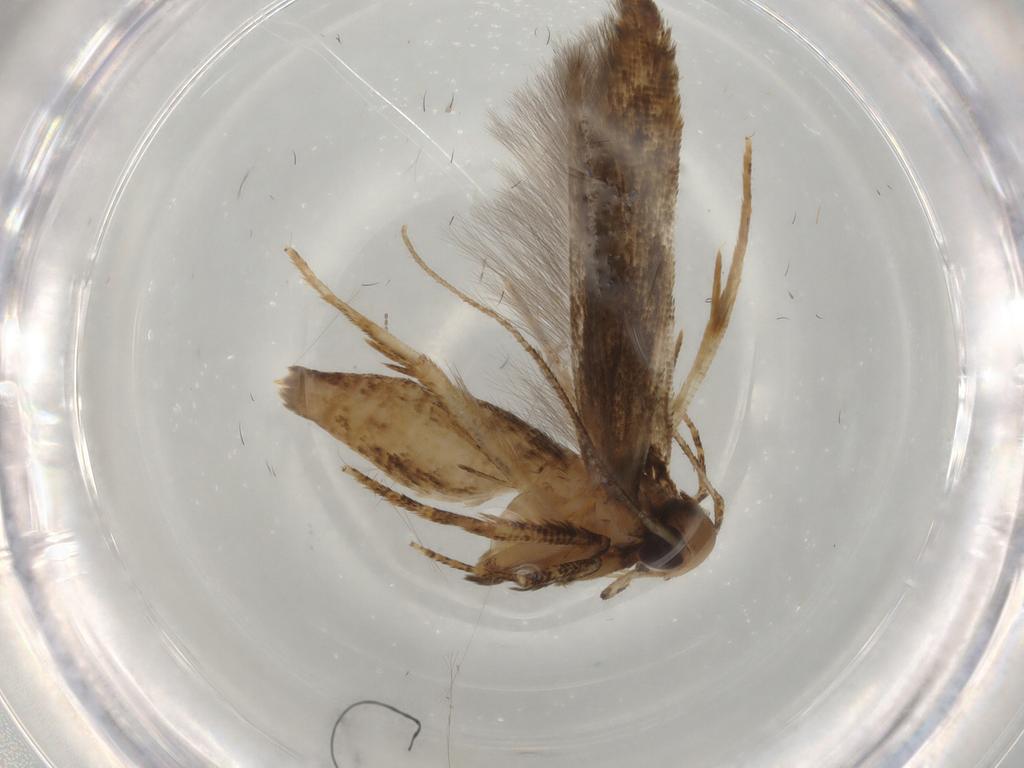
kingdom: Animalia
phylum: Arthropoda
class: Insecta
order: Lepidoptera
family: Depressariidae
